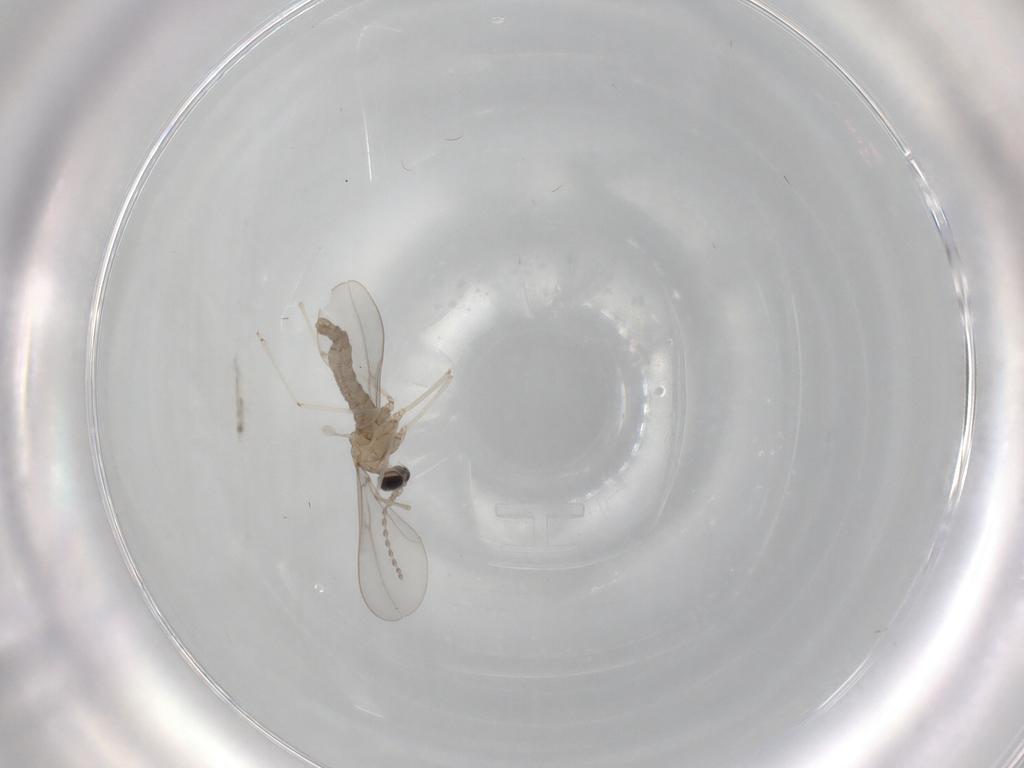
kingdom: Animalia
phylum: Arthropoda
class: Insecta
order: Diptera
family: Cecidomyiidae
